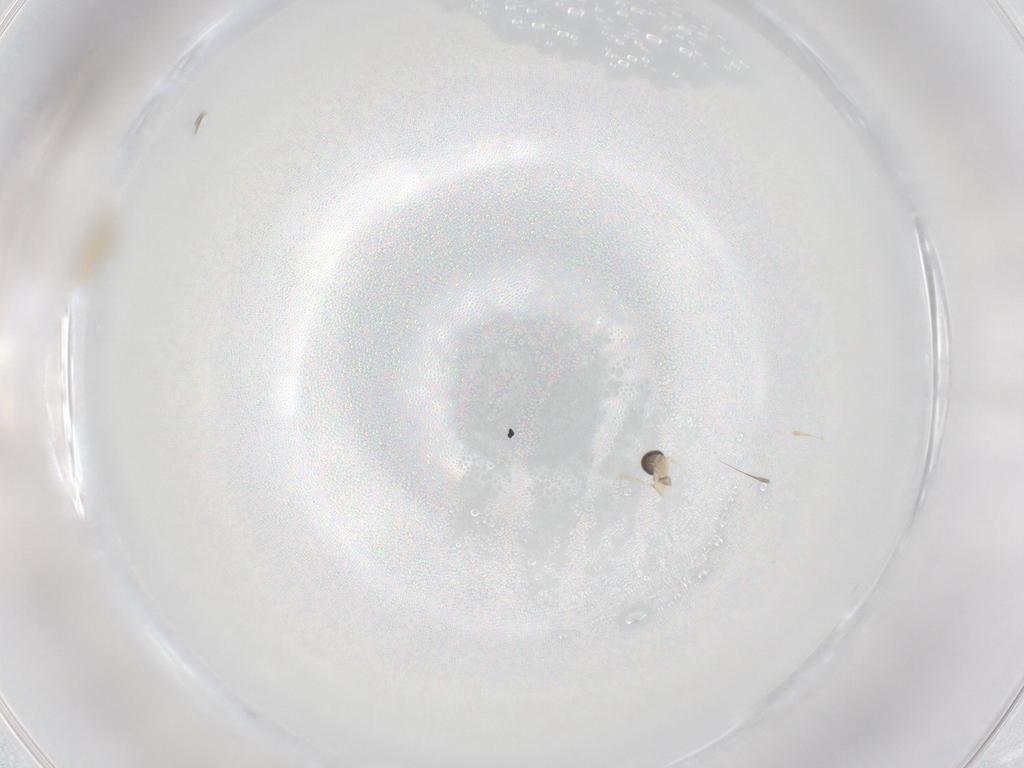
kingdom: Animalia
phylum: Arthropoda
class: Insecta
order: Diptera
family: Cecidomyiidae
